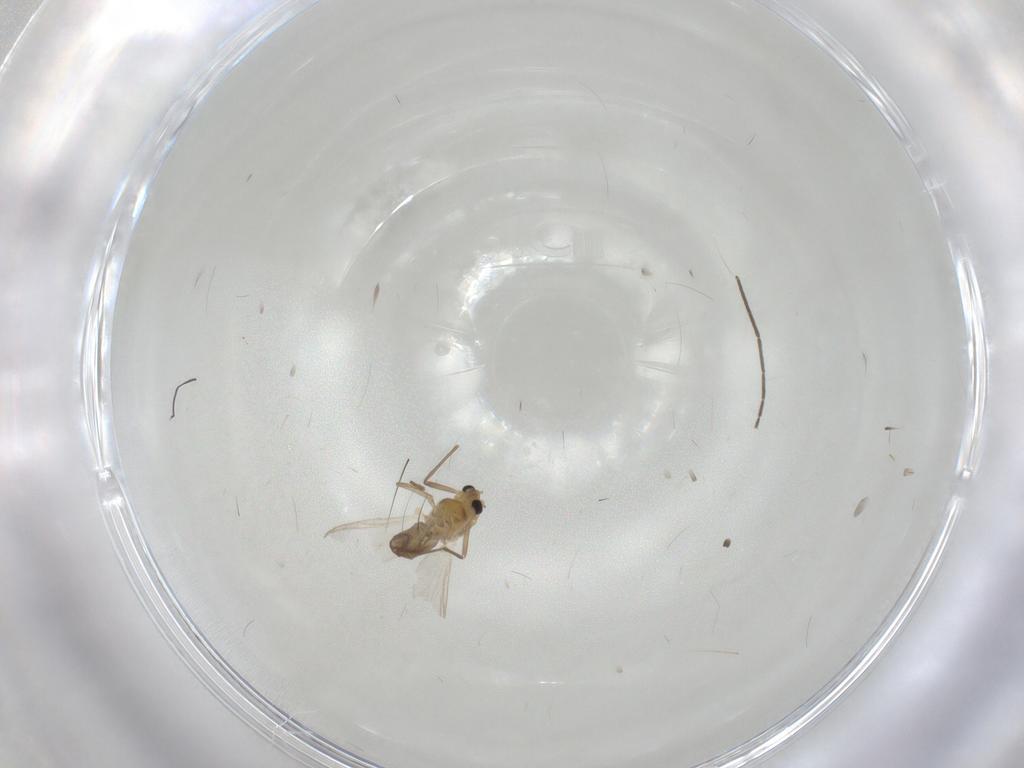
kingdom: Animalia
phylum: Arthropoda
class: Insecta
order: Diptera
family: Chironomidae
